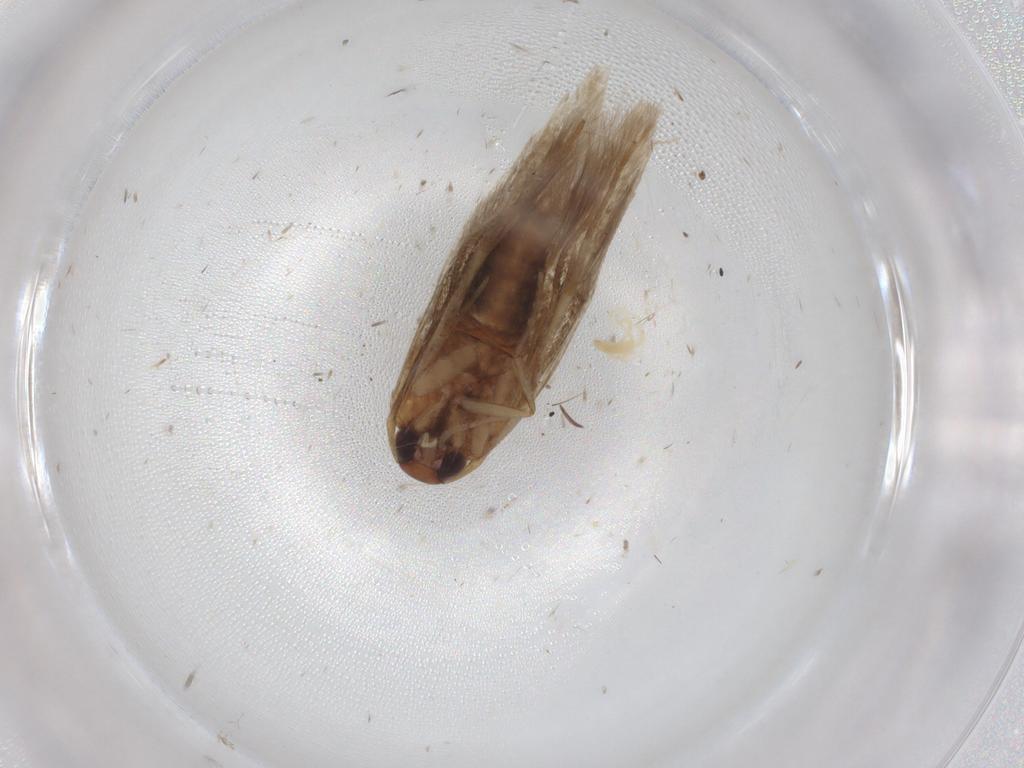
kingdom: Animalia
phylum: Arthropoda
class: Insecta
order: Lepidoptera
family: Cosmopterigidae
